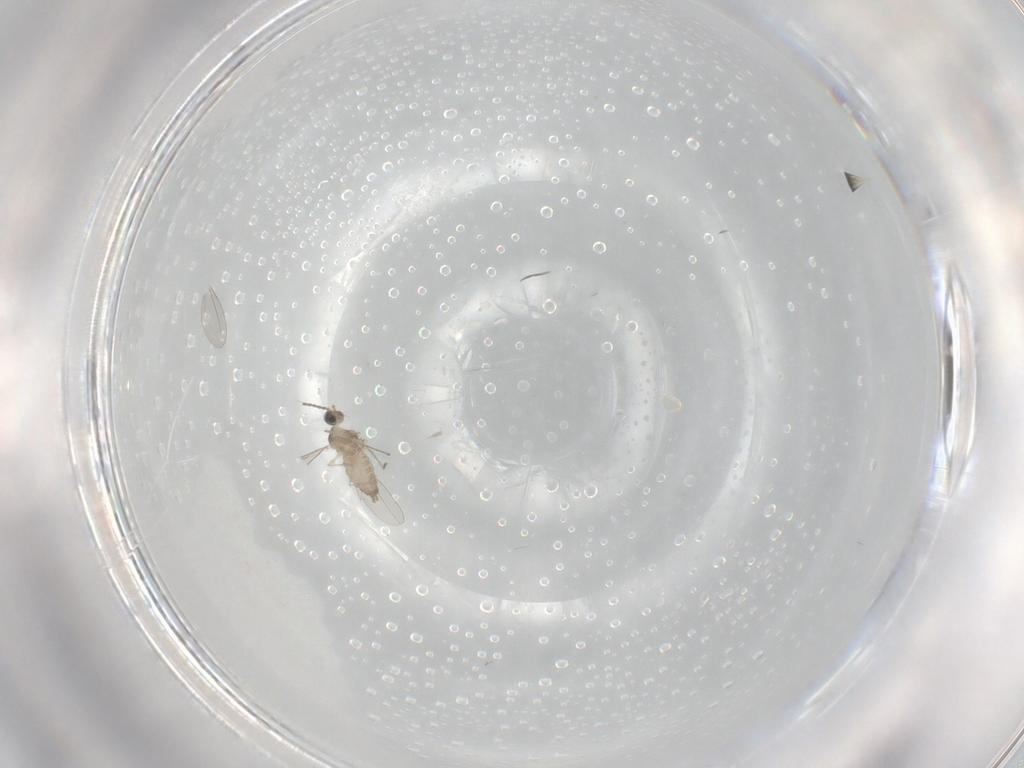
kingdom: Animalia
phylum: Arthropoda
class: Insecta
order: Diptera
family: Cecidomyiidae
